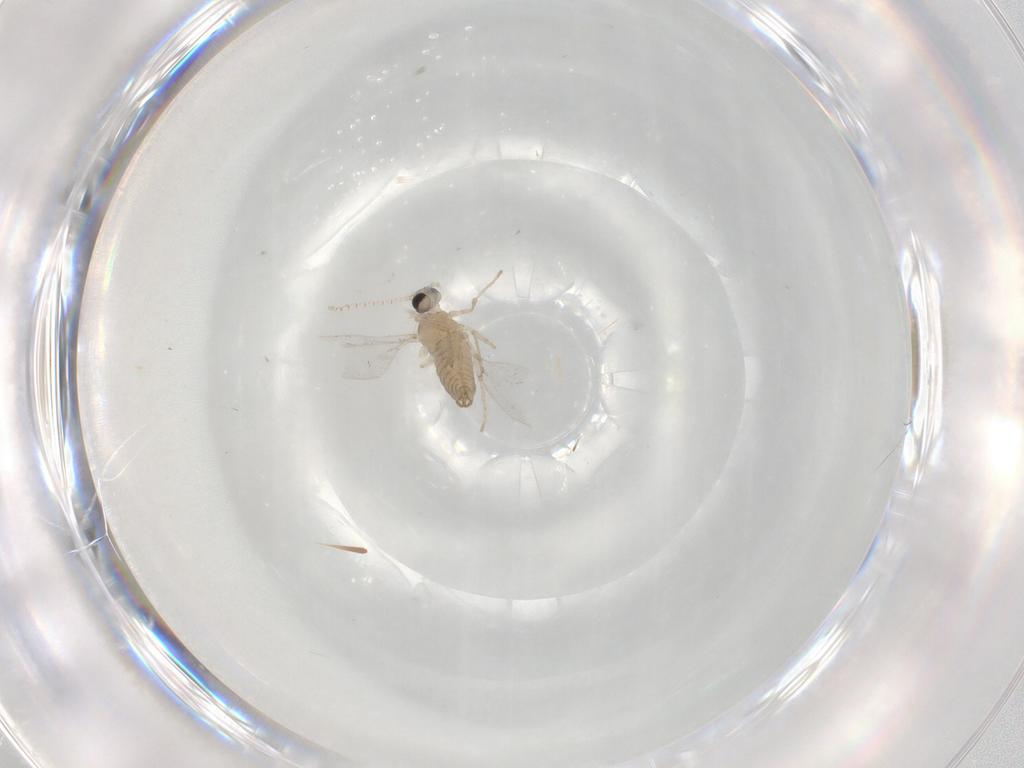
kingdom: Animalia
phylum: Arthropoda
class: Insecta
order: Diptera
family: Cecidomyiidae
